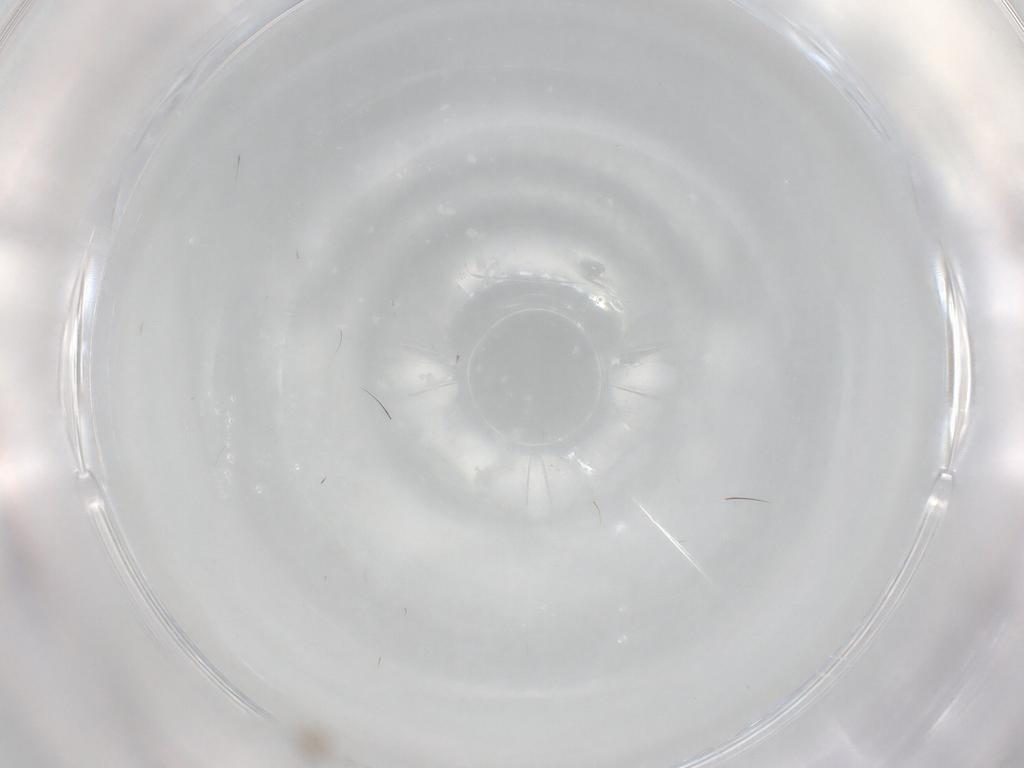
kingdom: Animalia
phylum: Arthropoda
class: Insecta
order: Diptera
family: Cecidomyiidae
